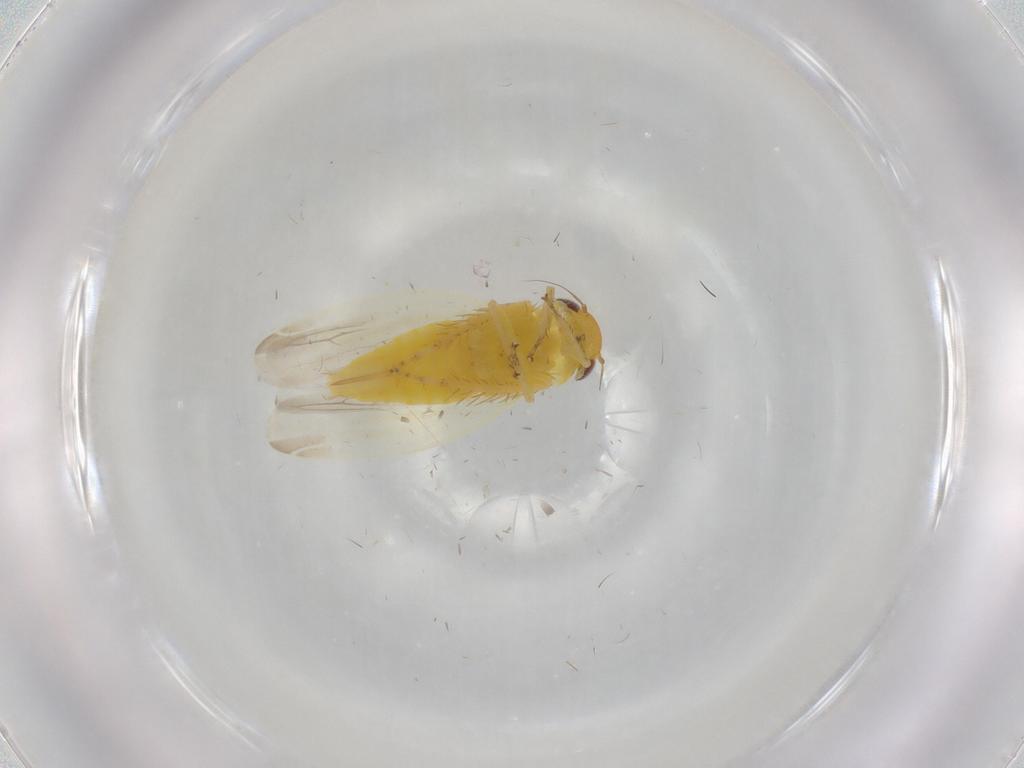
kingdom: Animalia
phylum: Arthropoda
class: Insecta
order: Hemiptera
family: Cicadellidae
